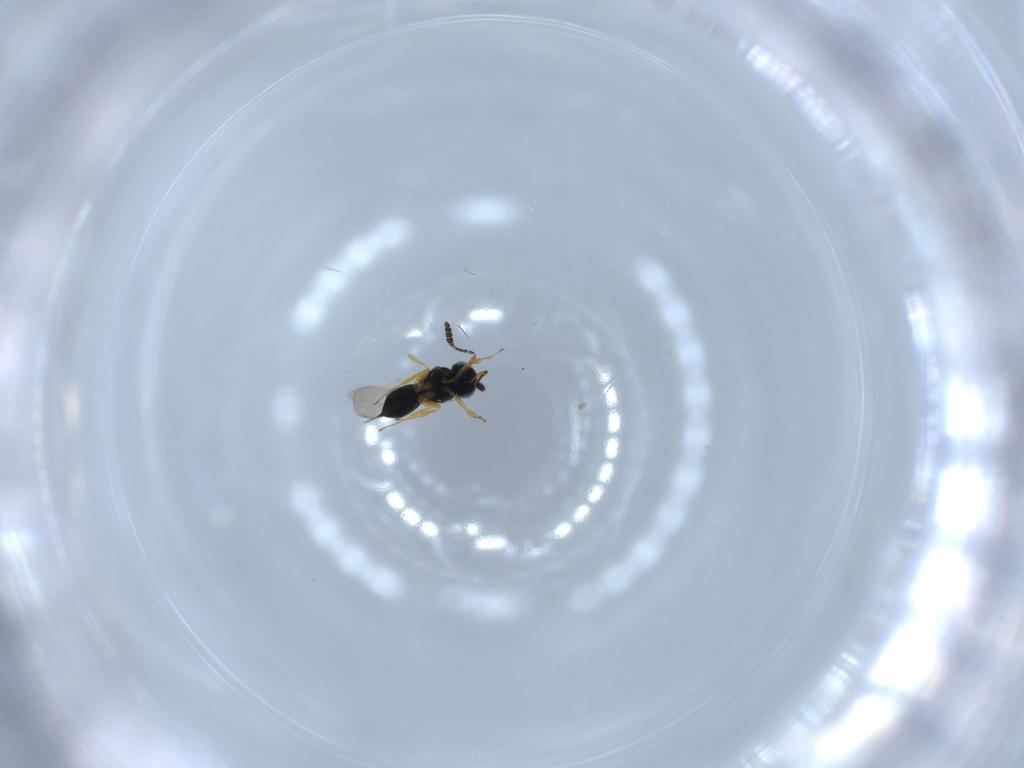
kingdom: Animalia
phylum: Arthropoda
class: Insecta
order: Hymenoptera
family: Scelionidae
